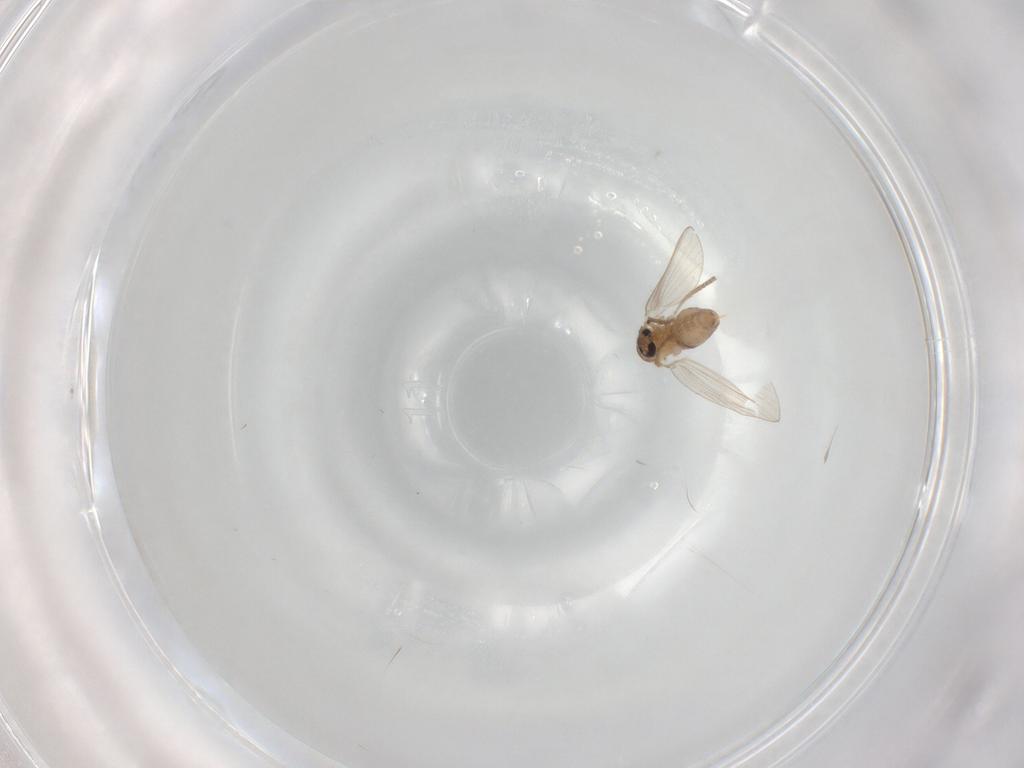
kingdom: Animalia
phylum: Arthropoda
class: Insecta
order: Diptera
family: Psychodidae
